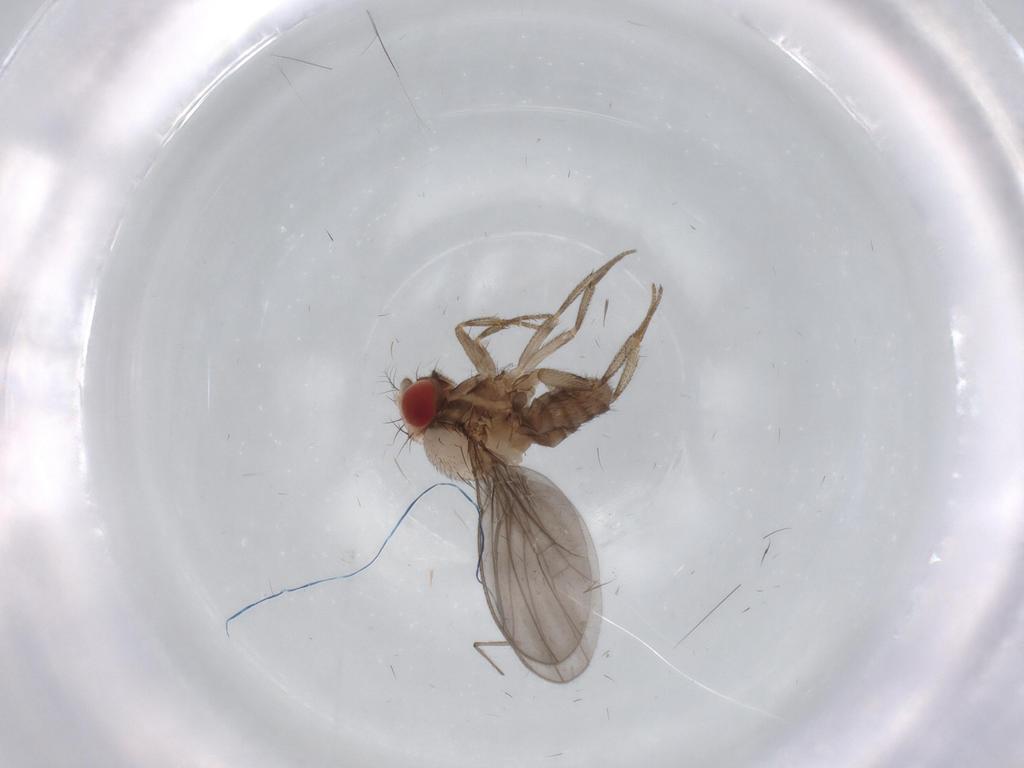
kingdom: Animalia
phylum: Arthropoda
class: Insecta
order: Diptera
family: Drosophilidae
